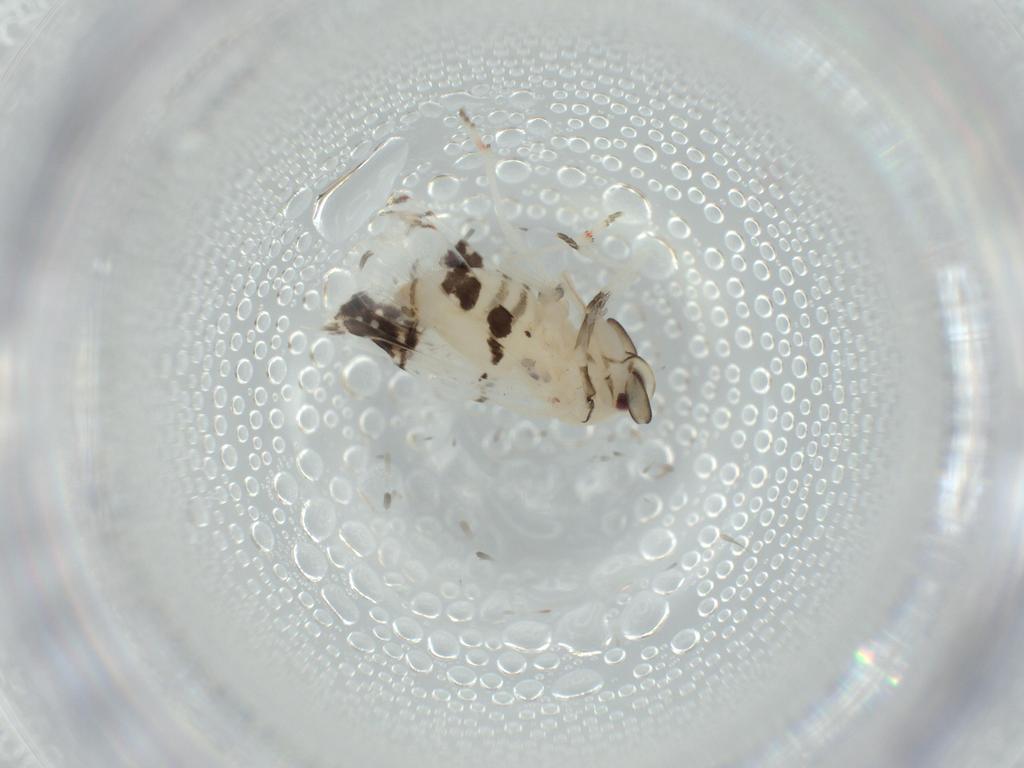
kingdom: Animalia
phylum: Arthropoda
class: Insecta
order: Hemiptera
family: Derbidae
